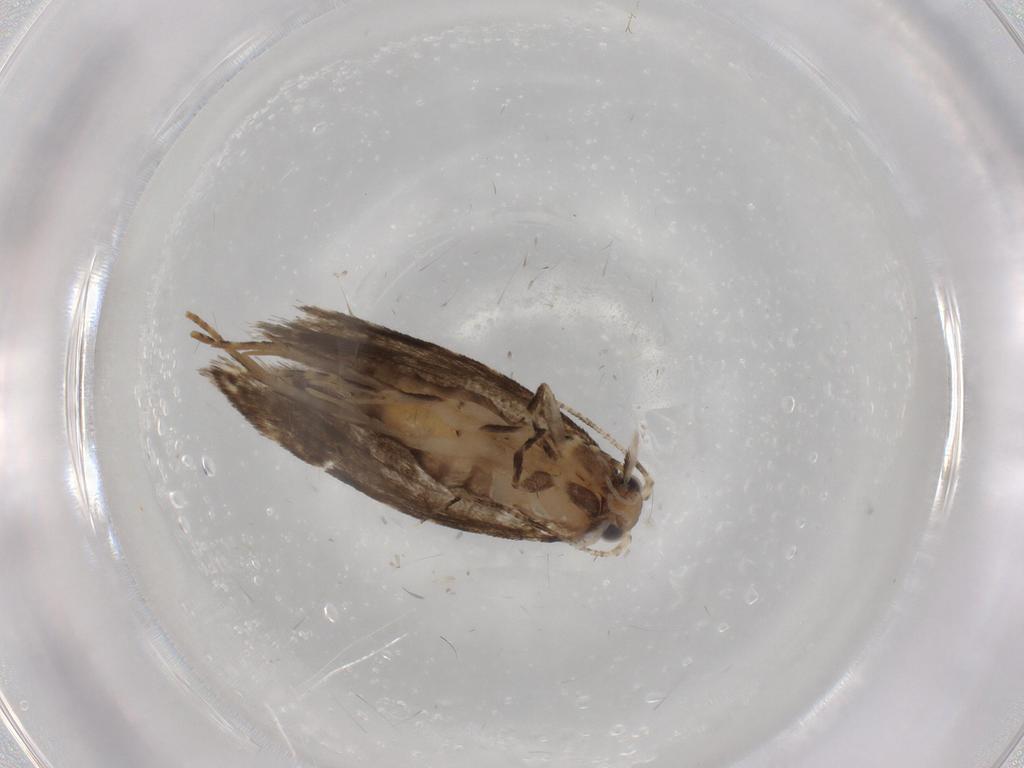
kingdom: Animalia
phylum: Arthropoda
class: Insecta
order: Lepidoptera
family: Tineidae
